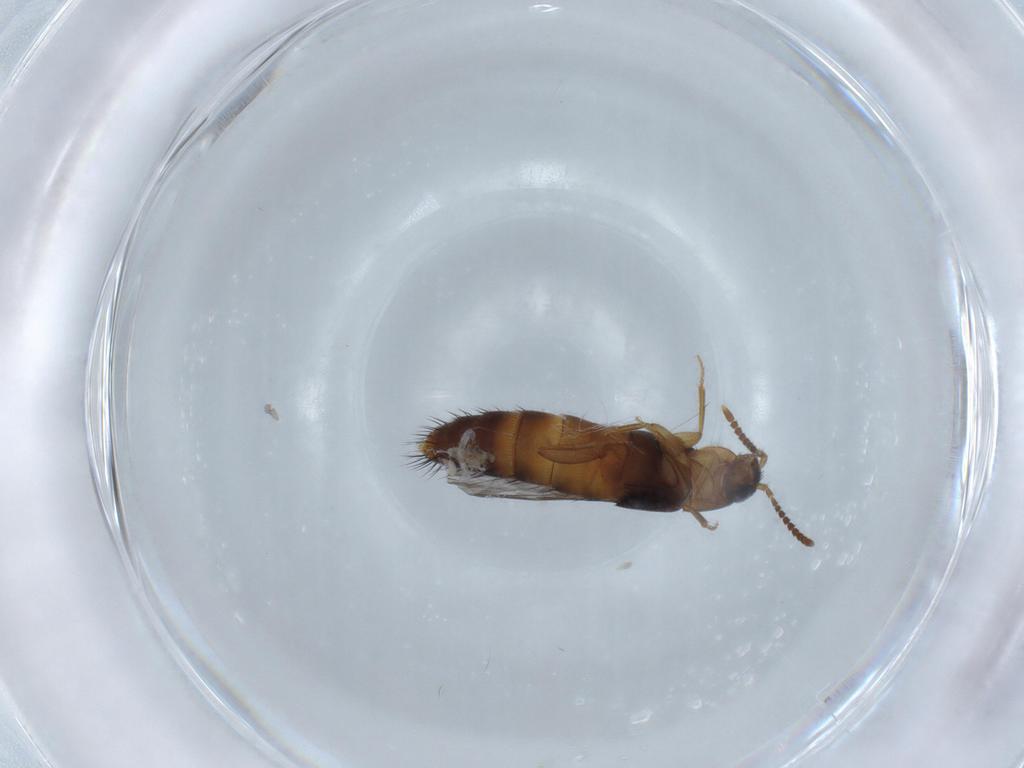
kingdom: Animalia
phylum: Arthropoda
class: Insecta
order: Coleoptera
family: Staphylinidae
